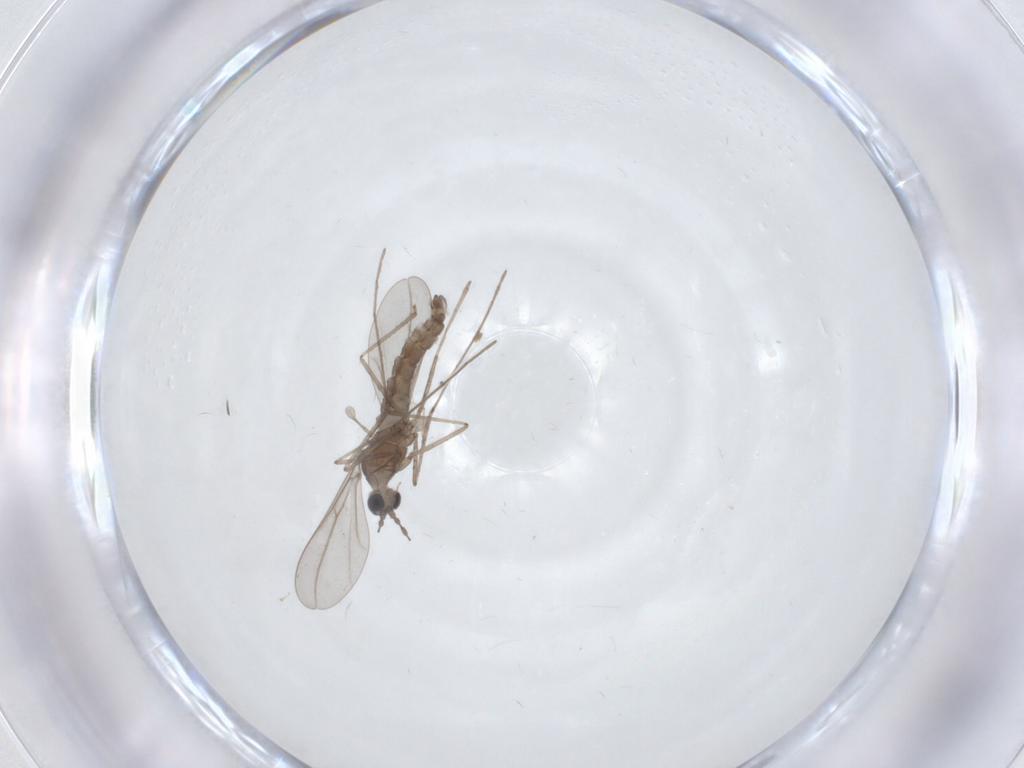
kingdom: Animalia
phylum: Arthropoda
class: Insecta
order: Diptera
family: Cecidomyiidae
